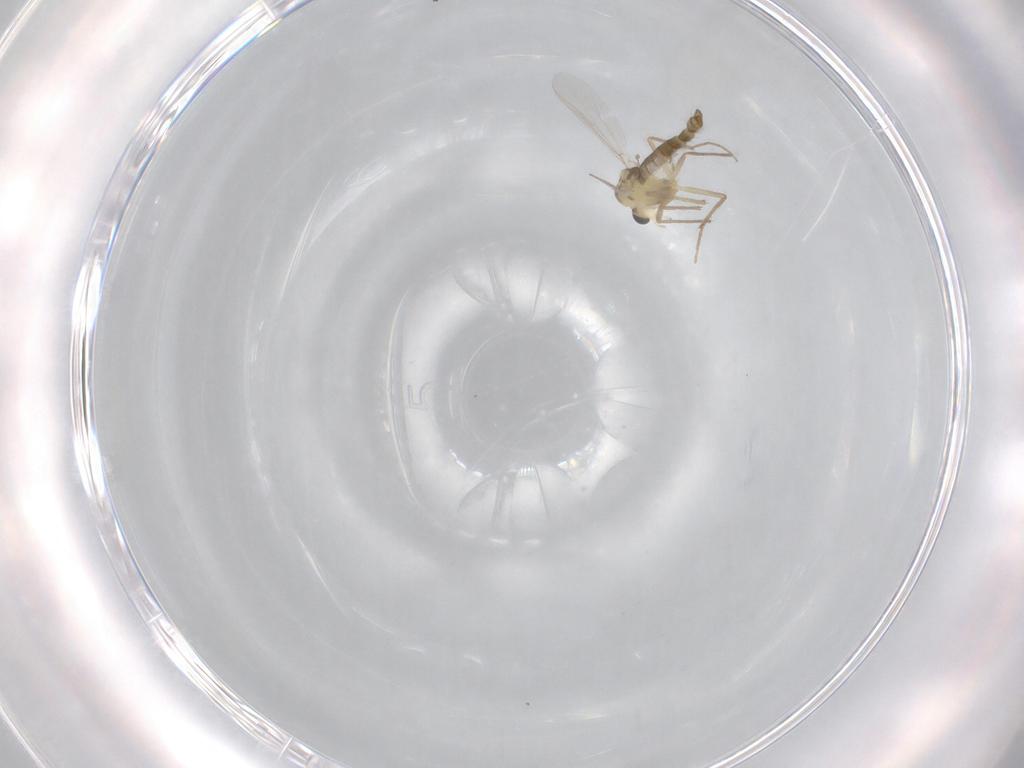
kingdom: Animalia
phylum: Arthropoda
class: Insecta
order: Diptera
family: Chironomidae
